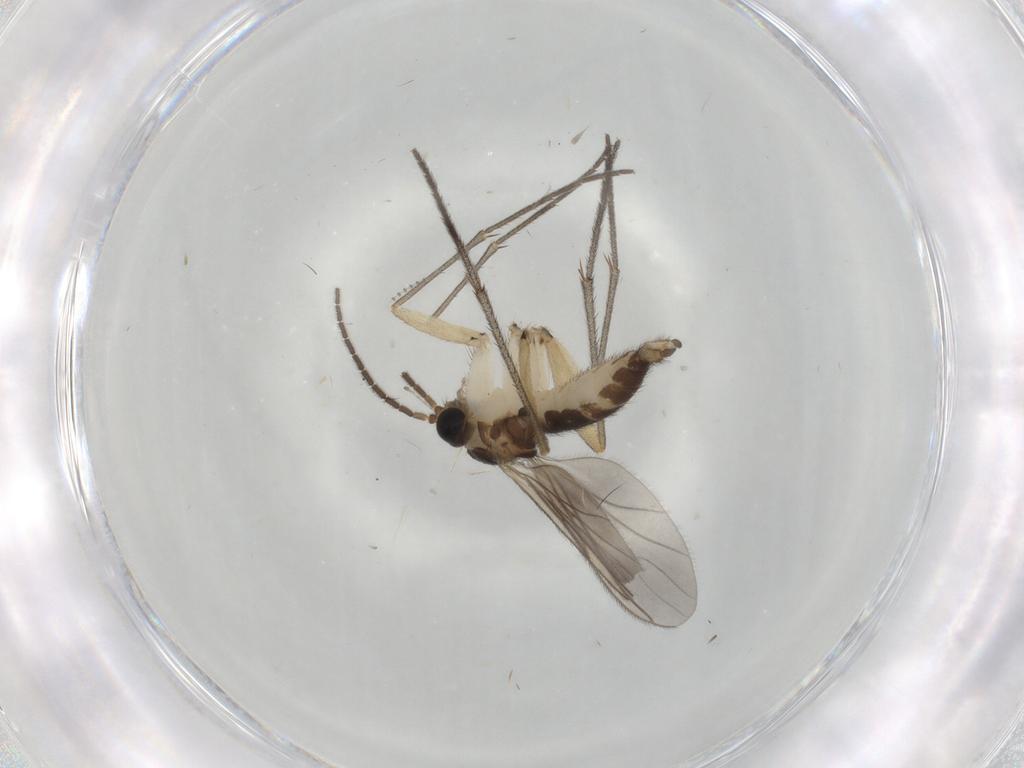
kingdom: Animalia
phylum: Arthropoda
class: Insecta
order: Diptera
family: Sciaridae
